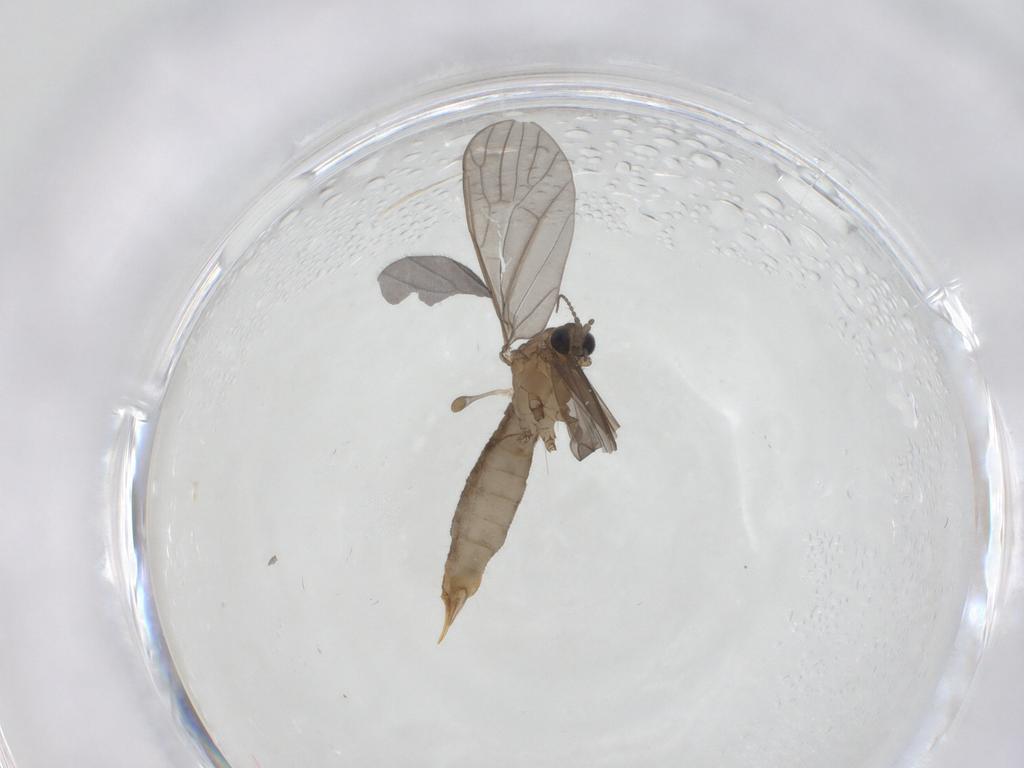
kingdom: Animalia
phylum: Arthropoda
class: Insecta
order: Diptera
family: Limoniidae
